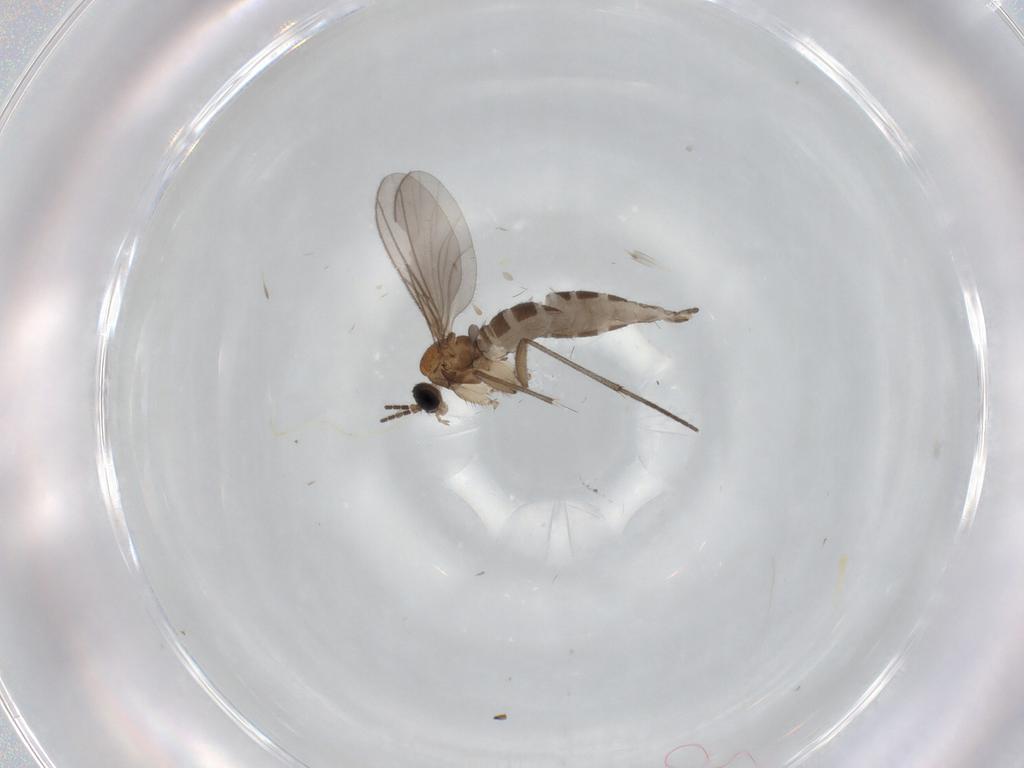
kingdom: Animalia
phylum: Arthropoda
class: Insecta
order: Diptera
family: Sciaridae
